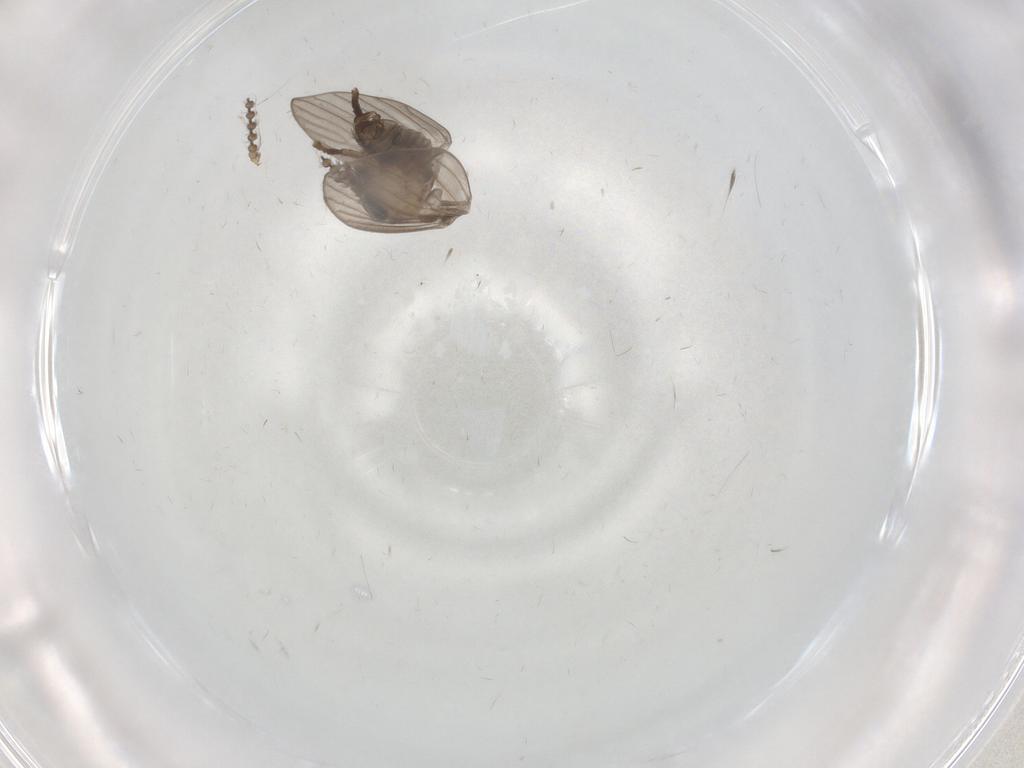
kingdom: Animalia
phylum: Arthropoda
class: Insecta
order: Diptera
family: Psychodidae
